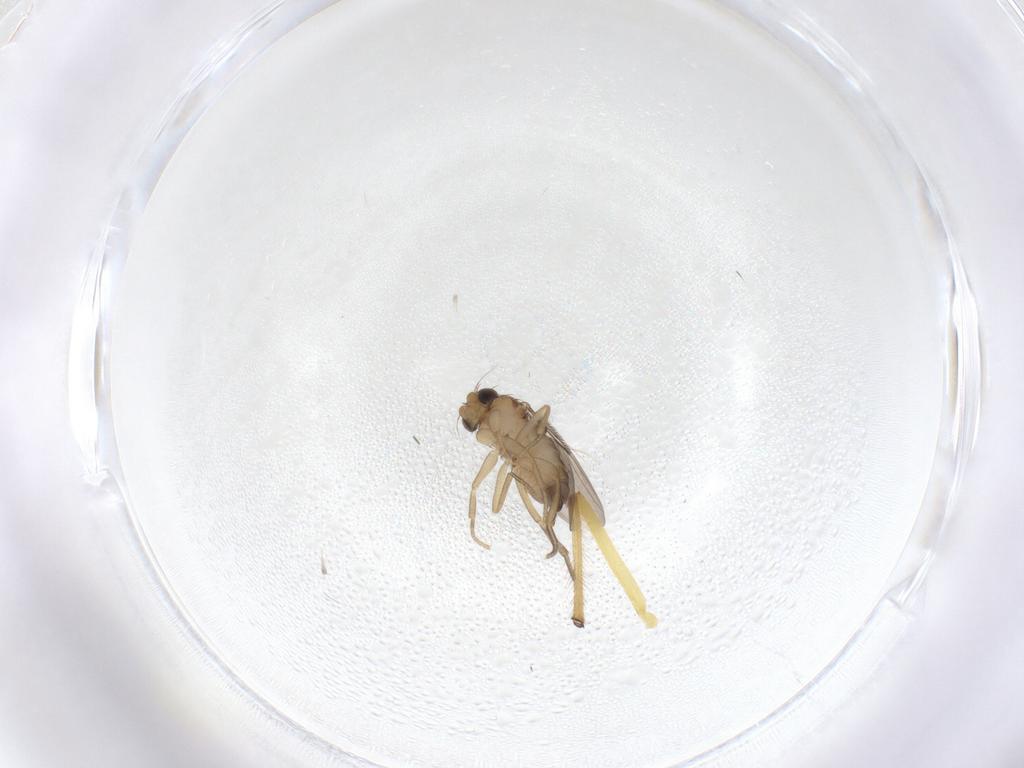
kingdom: Animalia
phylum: Arthropoda
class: Insecta
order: Diptera
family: Chironomidae
